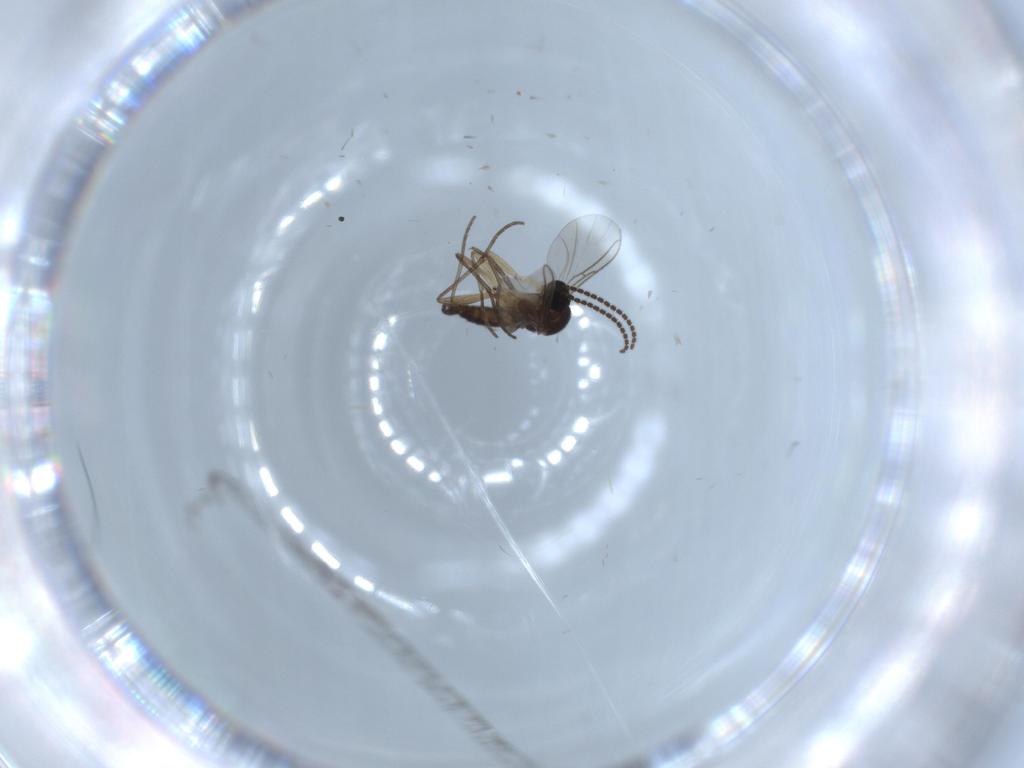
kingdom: Animalia
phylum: Arthropoda
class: Insecta
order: Diptera
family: Sciaridae
